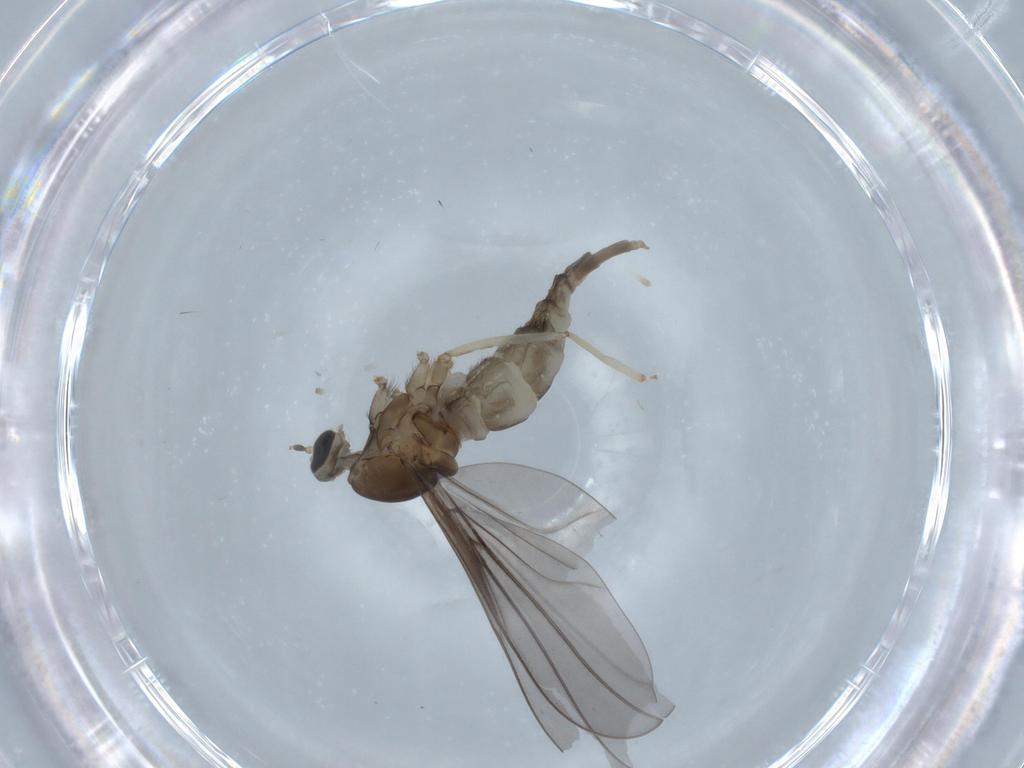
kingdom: Animalia
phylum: Arthropoda
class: Insecta
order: Diptera
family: Cecidomyiidae
